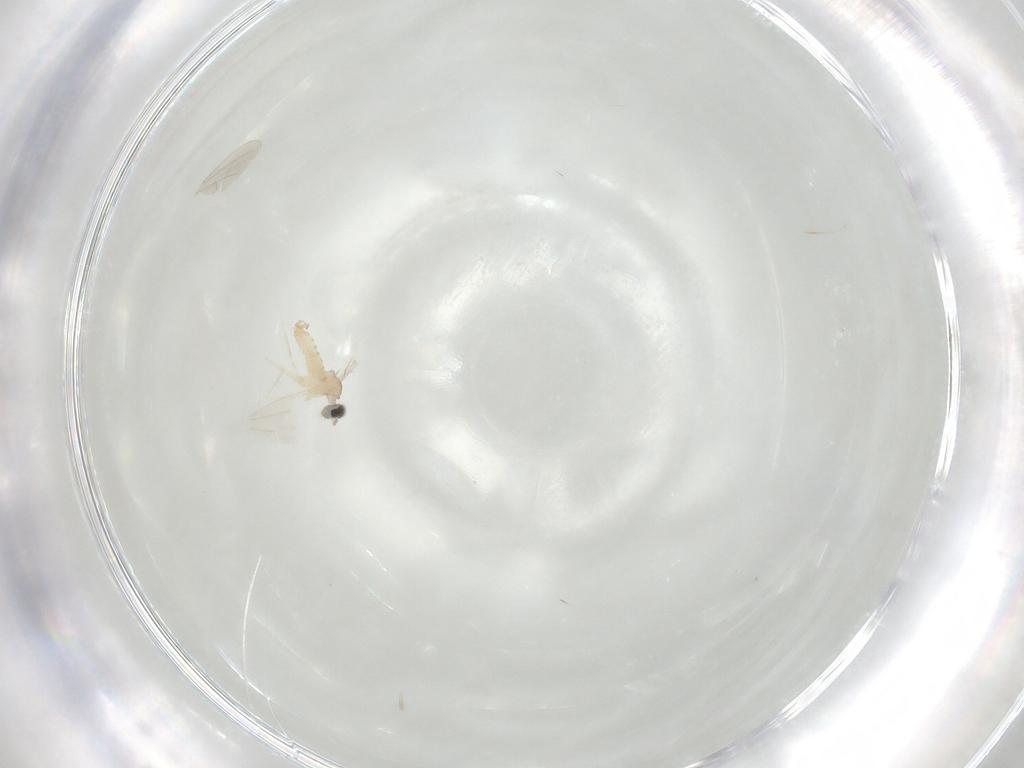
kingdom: Animalia
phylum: Arthropoda
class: Insecta
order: Diptera
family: Cecidomyiidae
